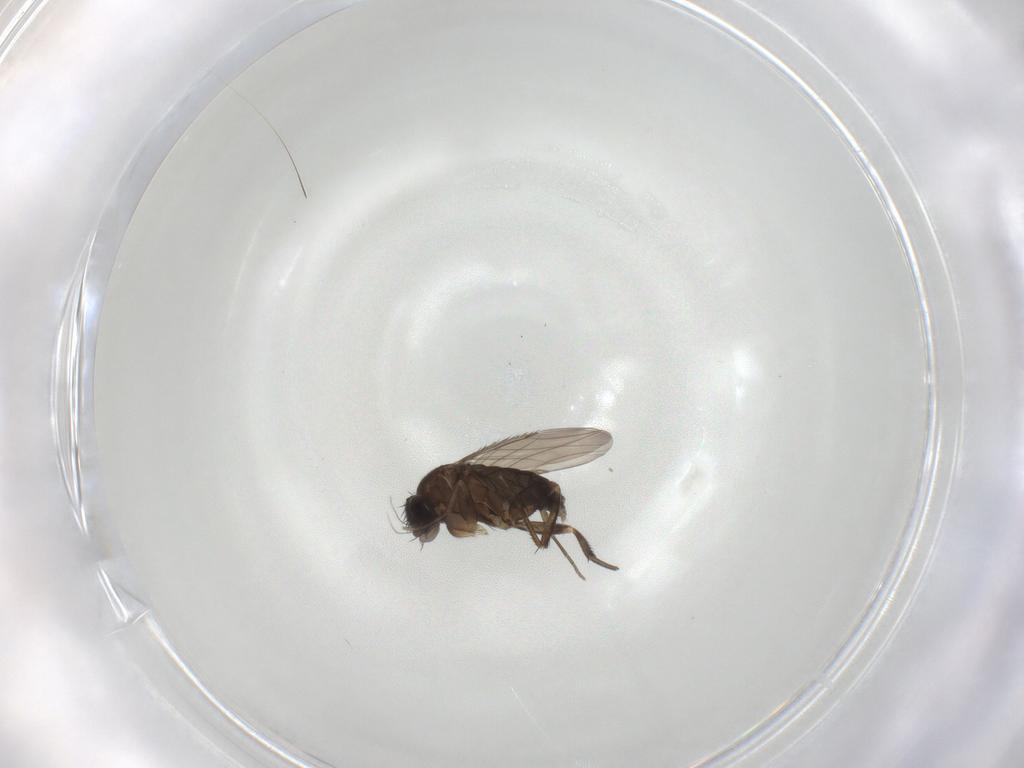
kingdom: Animalia
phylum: Arthropoda
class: Insecta
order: Diptera
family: Phoridae
